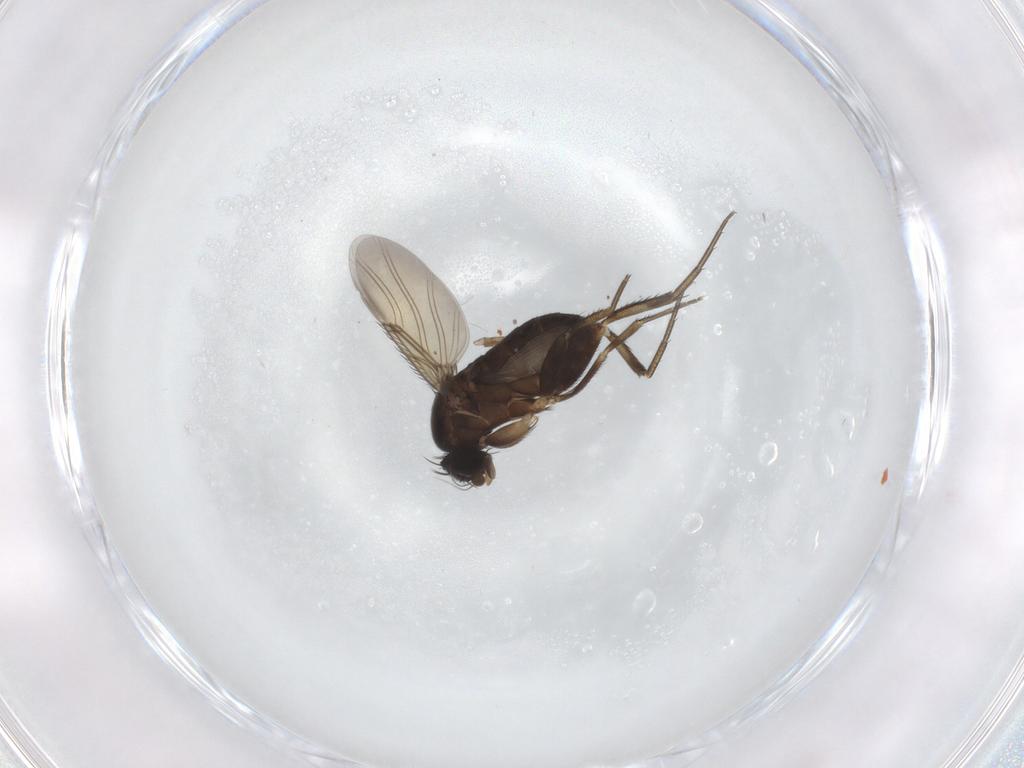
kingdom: Animalia
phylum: Arthropoda
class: Insecta
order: Diptera
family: Phoridae
